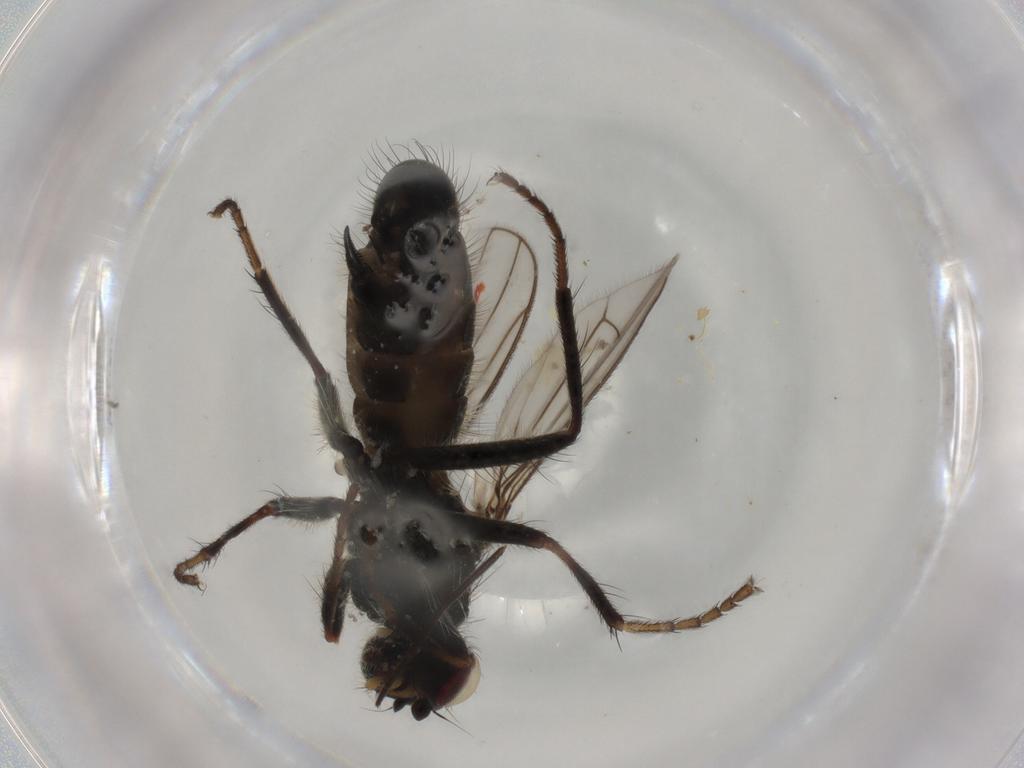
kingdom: Animalia
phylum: Arthropoda
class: Insecta
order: Diptera
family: Scathophagidae
